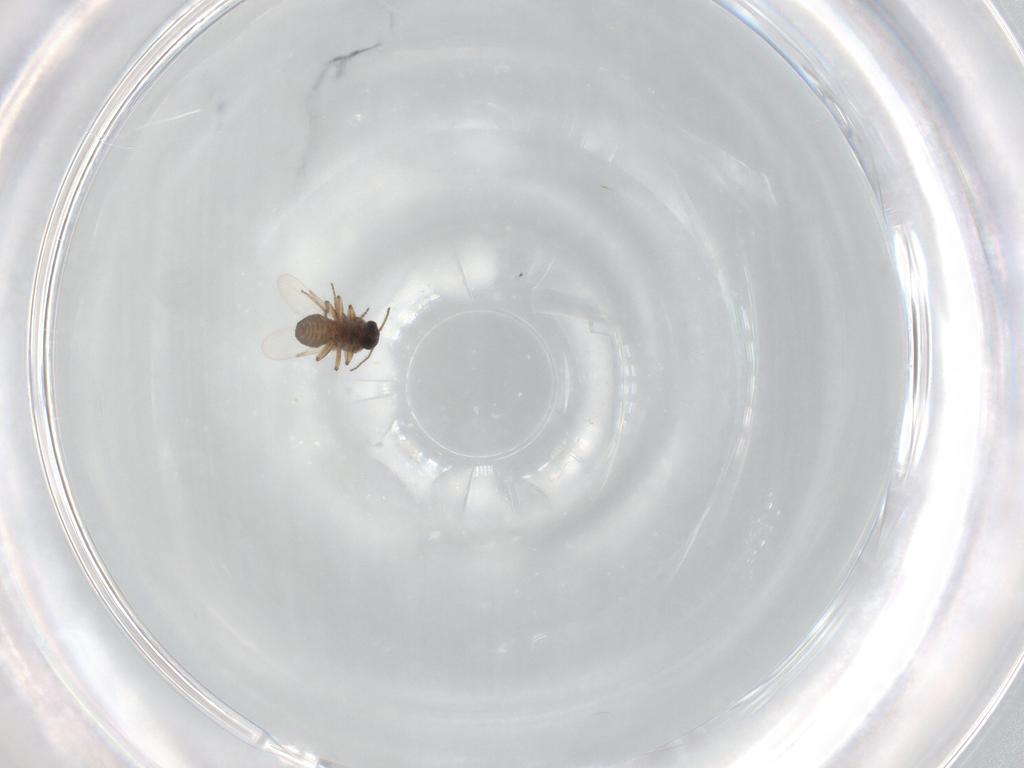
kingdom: Animalia
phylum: Arthropoda
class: Insecta
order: Diptera
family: Ceratopogonidae
